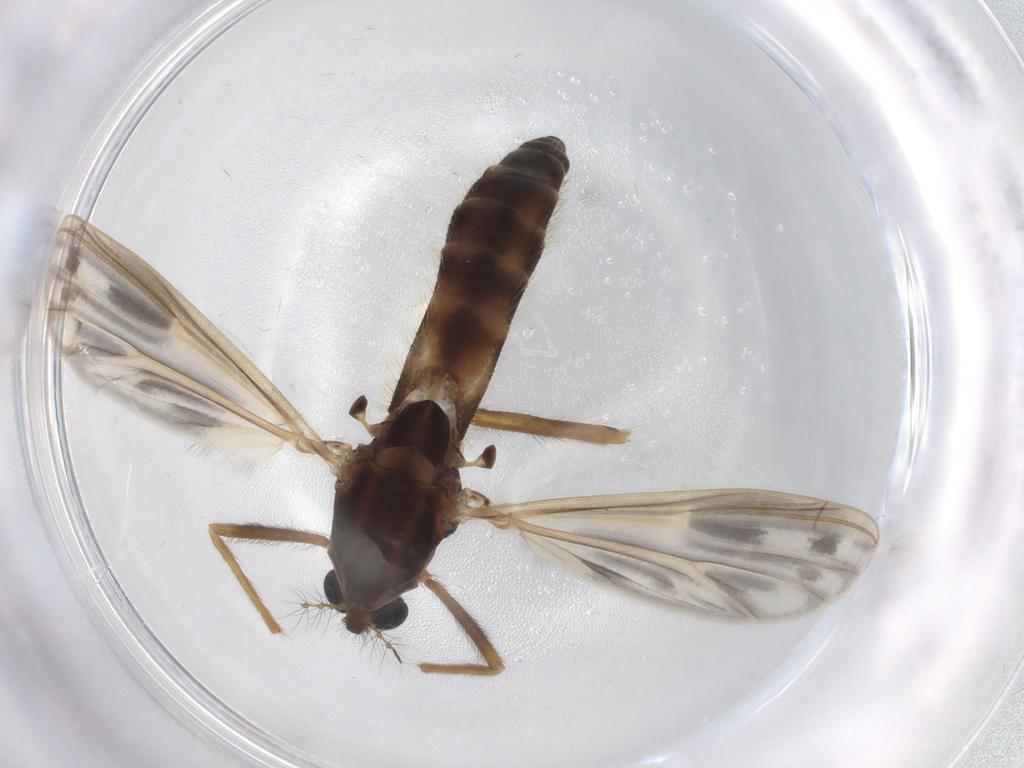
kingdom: Animalia
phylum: Arthropoda
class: Insecta
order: Diptera
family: Chironomidae
